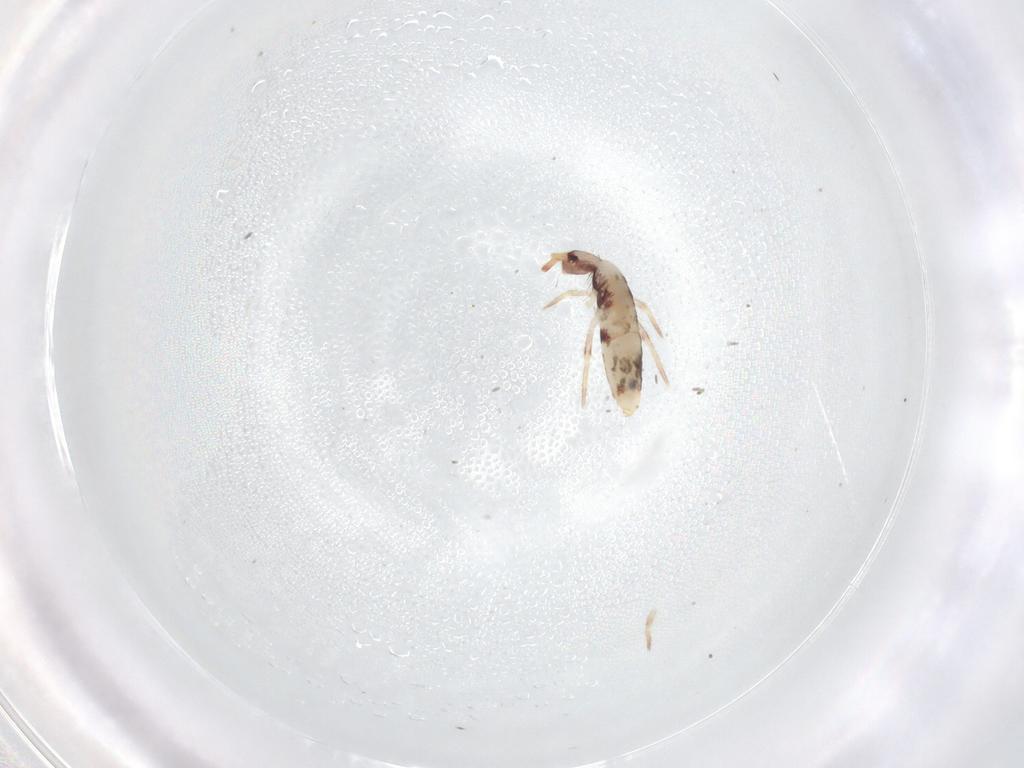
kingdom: Animalia
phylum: Arthropoda
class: Collembola
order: Entomobryomorpha
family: Entomobryidae
